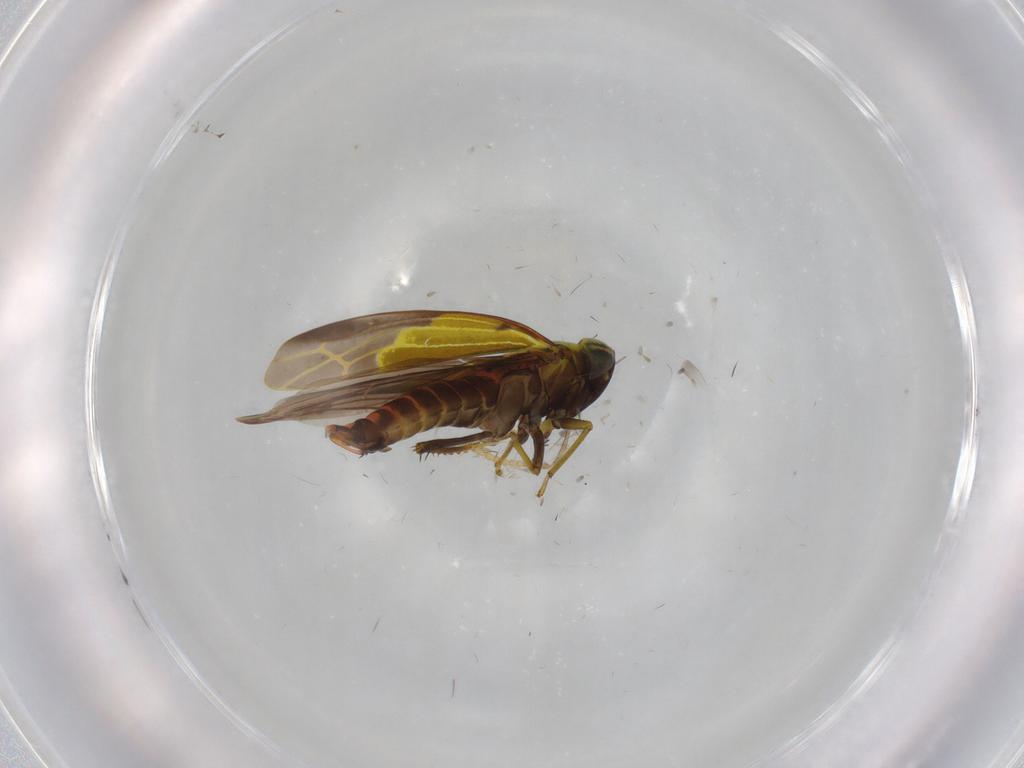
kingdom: Animalia
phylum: Arthropoda
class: Insecta
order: Hemiptera
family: Cicadellidae
